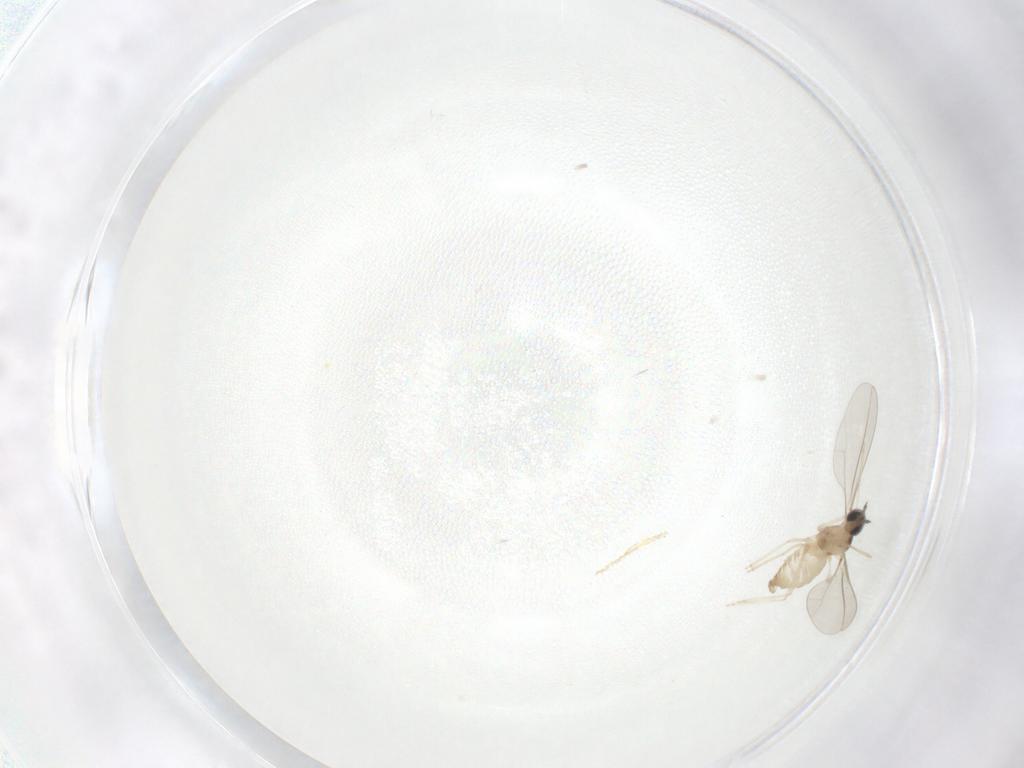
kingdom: Animalia
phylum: Arthropoda
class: Insecta
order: Diptera
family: Cecidomyiidae
